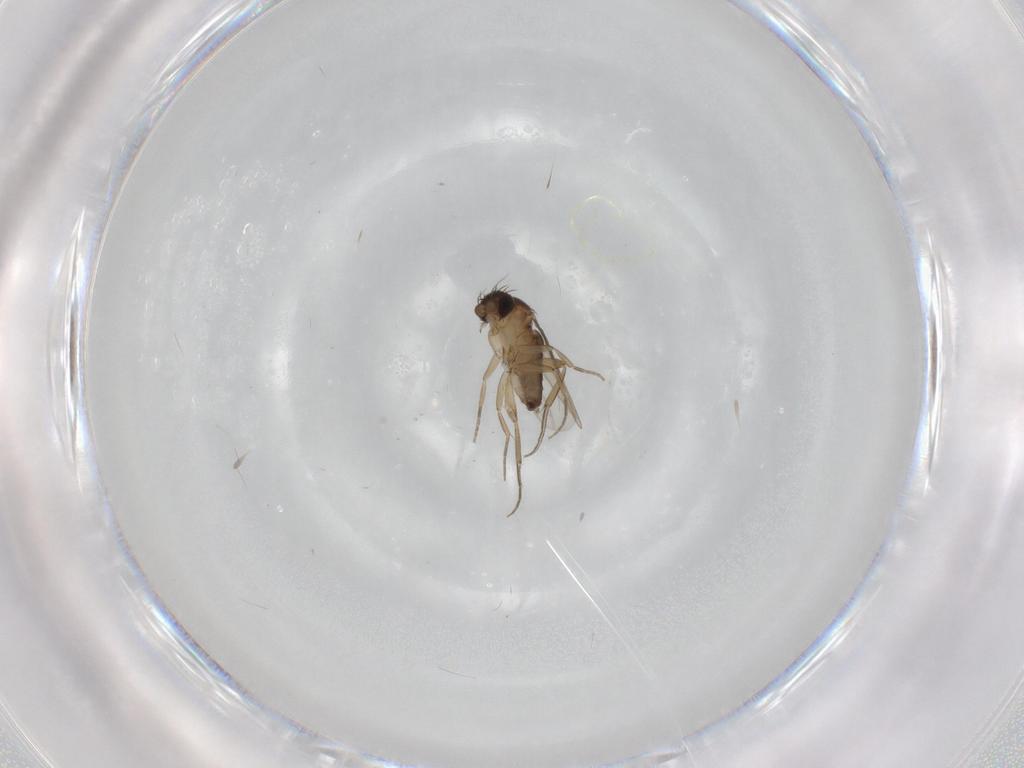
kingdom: Animalia
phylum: Arthropoda
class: Insecta
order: Diptera
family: Phoridae
